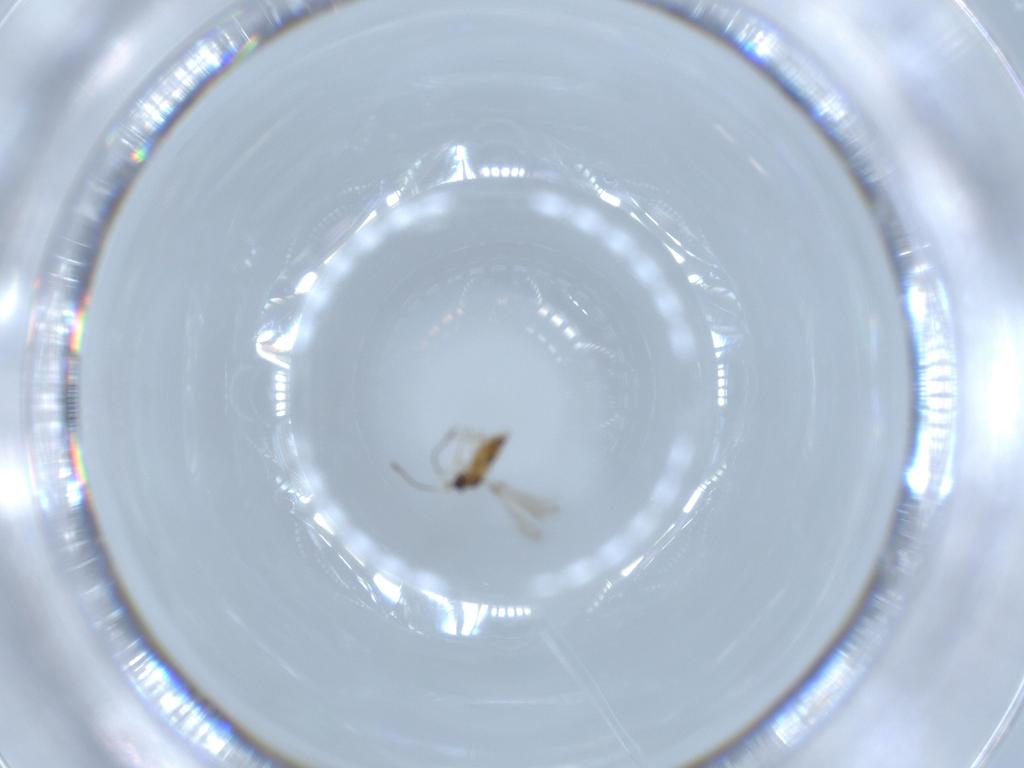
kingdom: Animalia
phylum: Arthropoda
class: Insecta
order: Hymenoptera
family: Mymaridae
